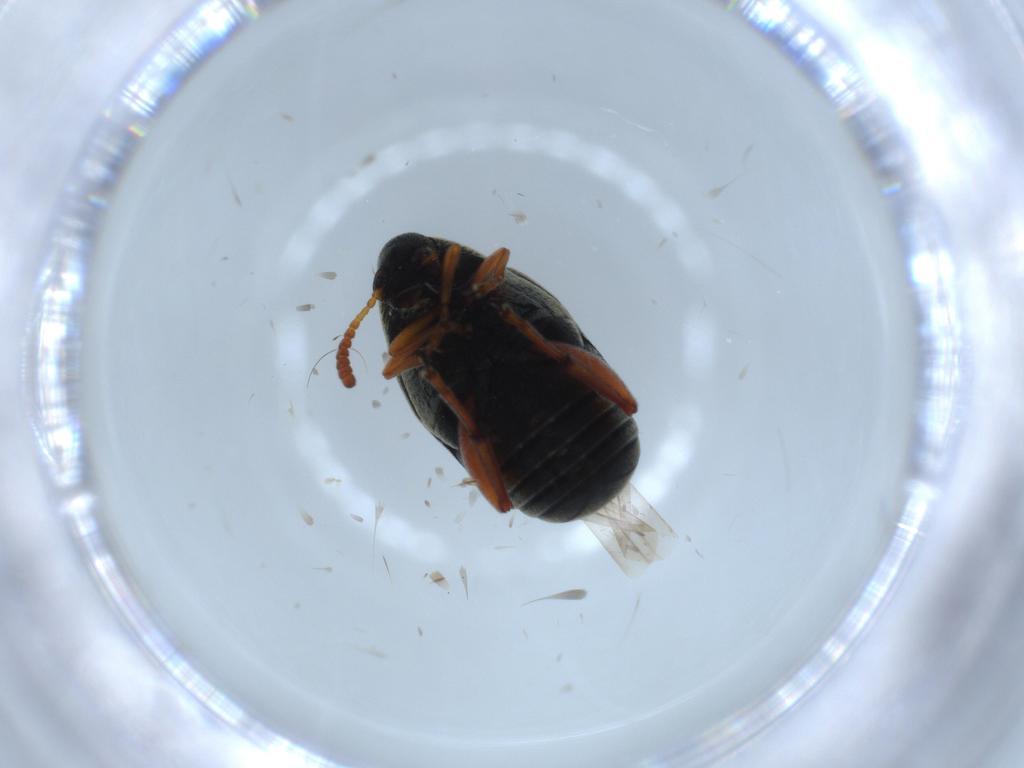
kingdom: Animalia
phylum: Arthropoda
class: Insecta
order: Coleoptera
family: Chrysomelidae
